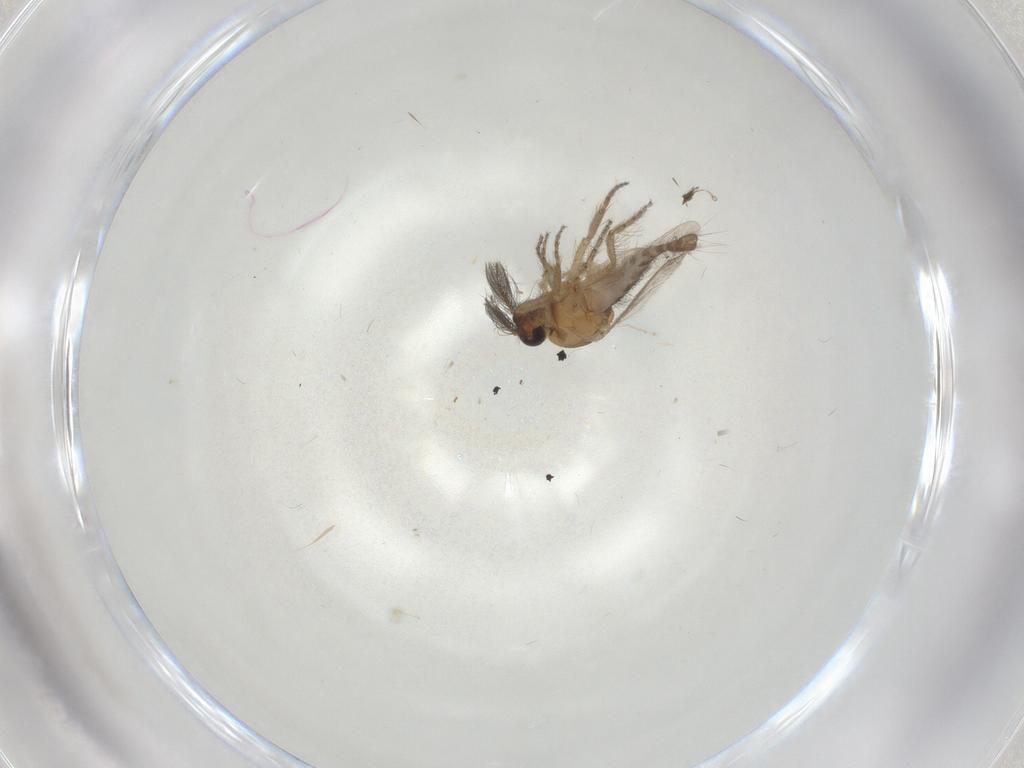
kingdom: Animalia
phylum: Arthropoda
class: Insecta
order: Diptera
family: Ceratopogonidae
